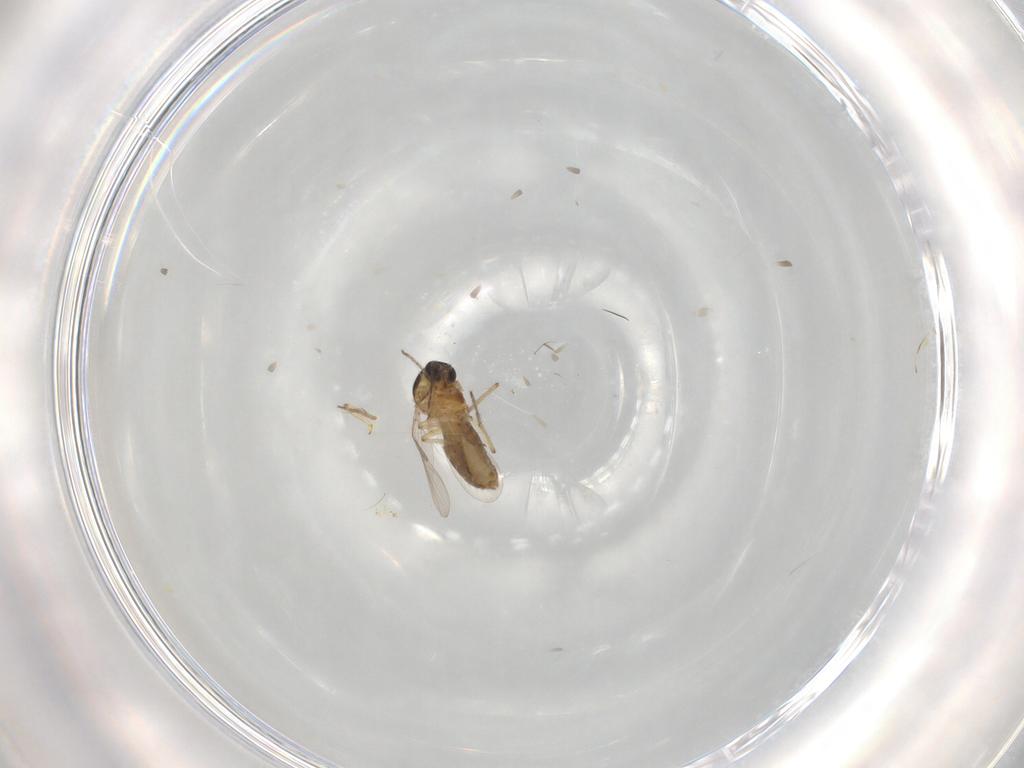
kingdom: Animalia
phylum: Arthropoda
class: Insecta
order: Diptera
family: Ceratopogonidae
